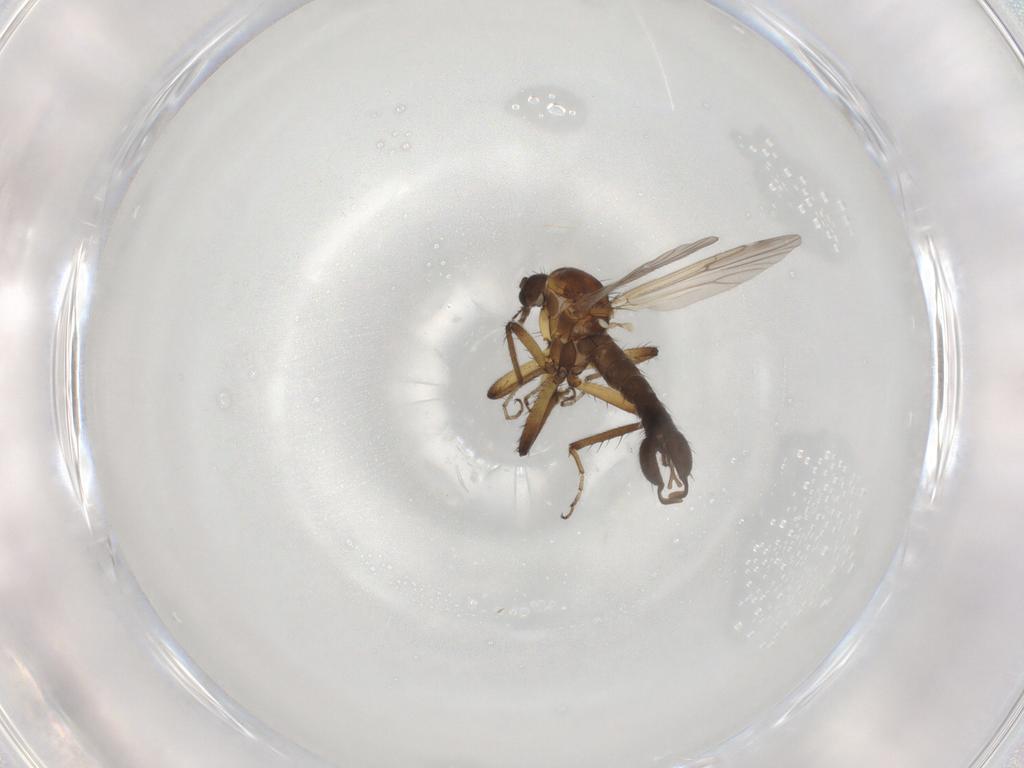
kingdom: Animalia
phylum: Arthropoda
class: Insecta
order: Diptera
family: Ceratopogonidae
